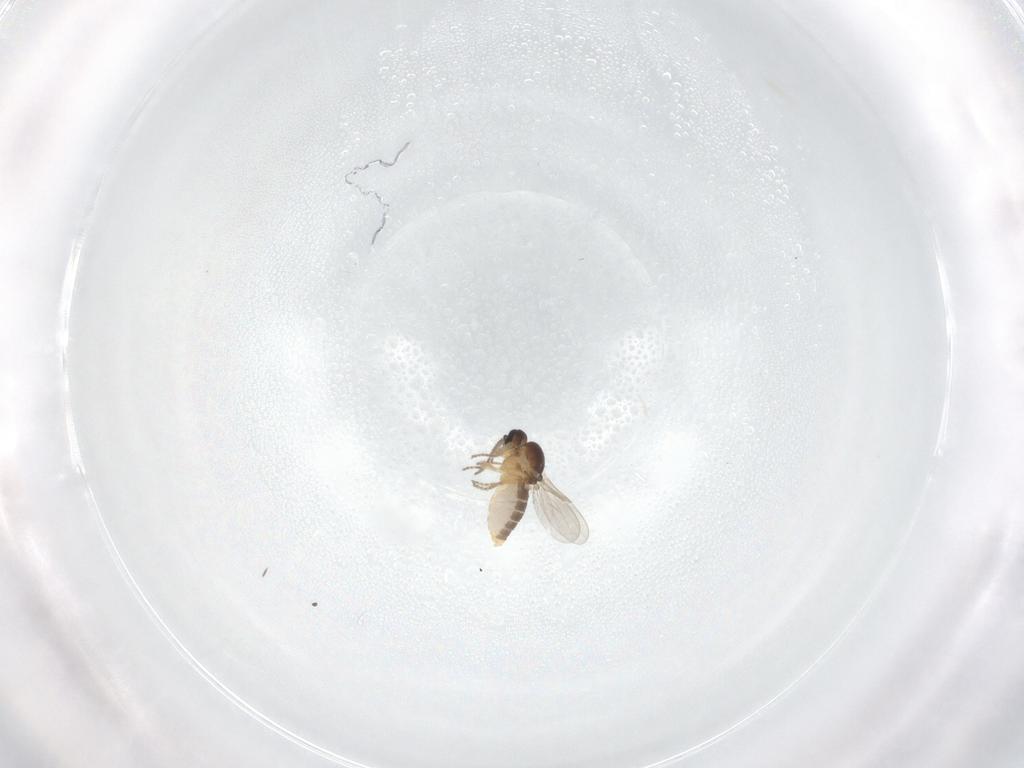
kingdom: Animalia
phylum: Arthropoda
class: Insecta
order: Diptera
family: Ceratopogonidae
